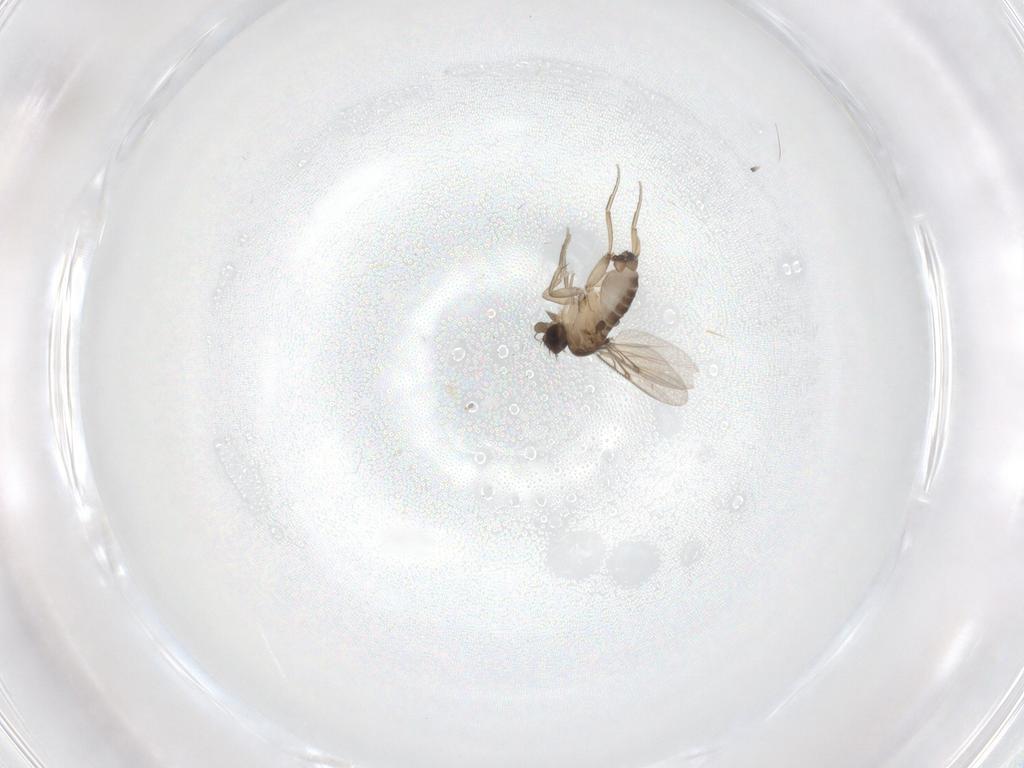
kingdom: Animalia
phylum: Arthropoda
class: Insecta
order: Diptera
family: Phoridae
